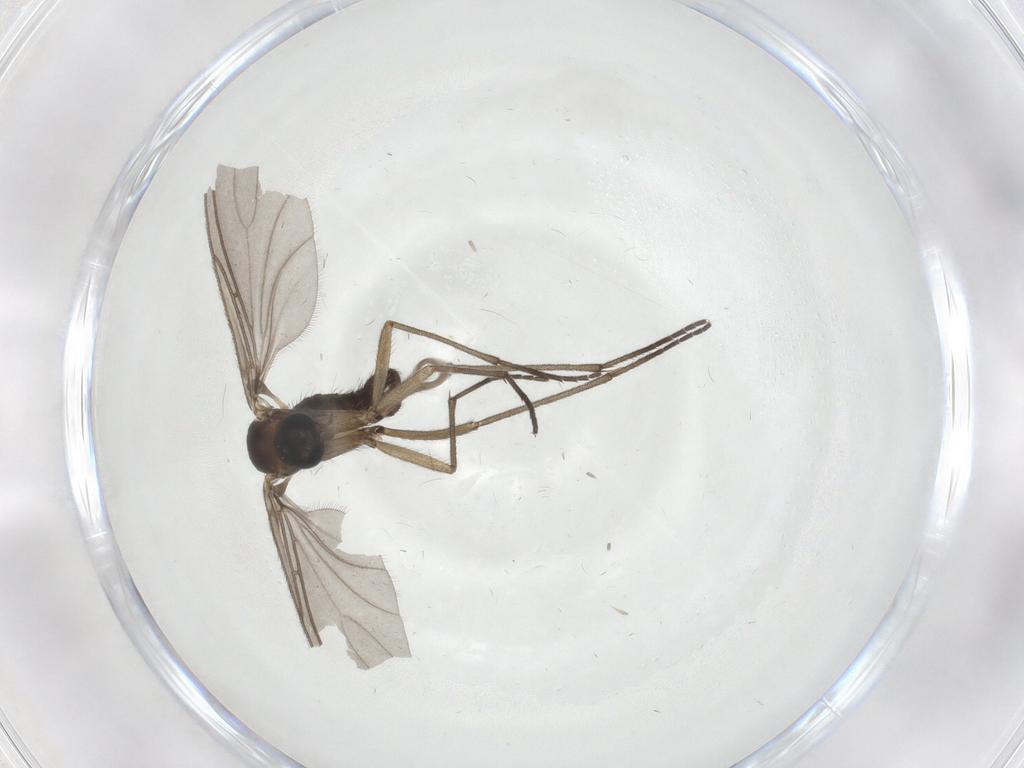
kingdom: Animalia
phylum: Arthropoda
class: Insecta
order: Diptera
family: Sciaridae
